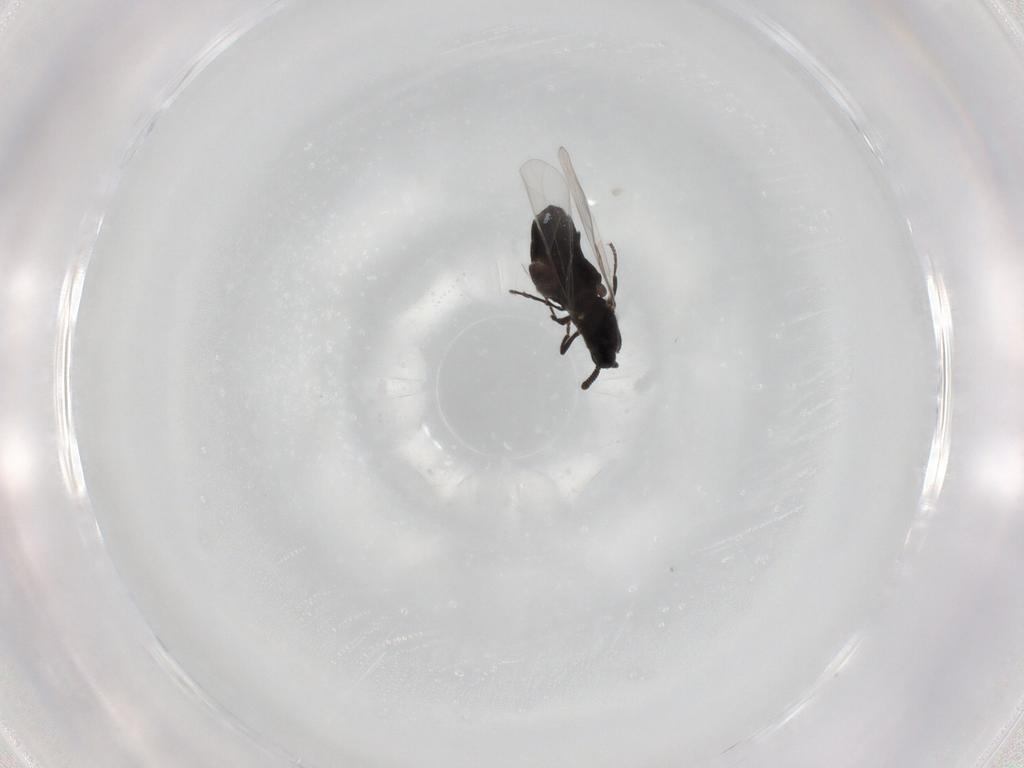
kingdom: Animalia
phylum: Arthropoda
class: Insecta
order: Diptera
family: Scatopsidae
